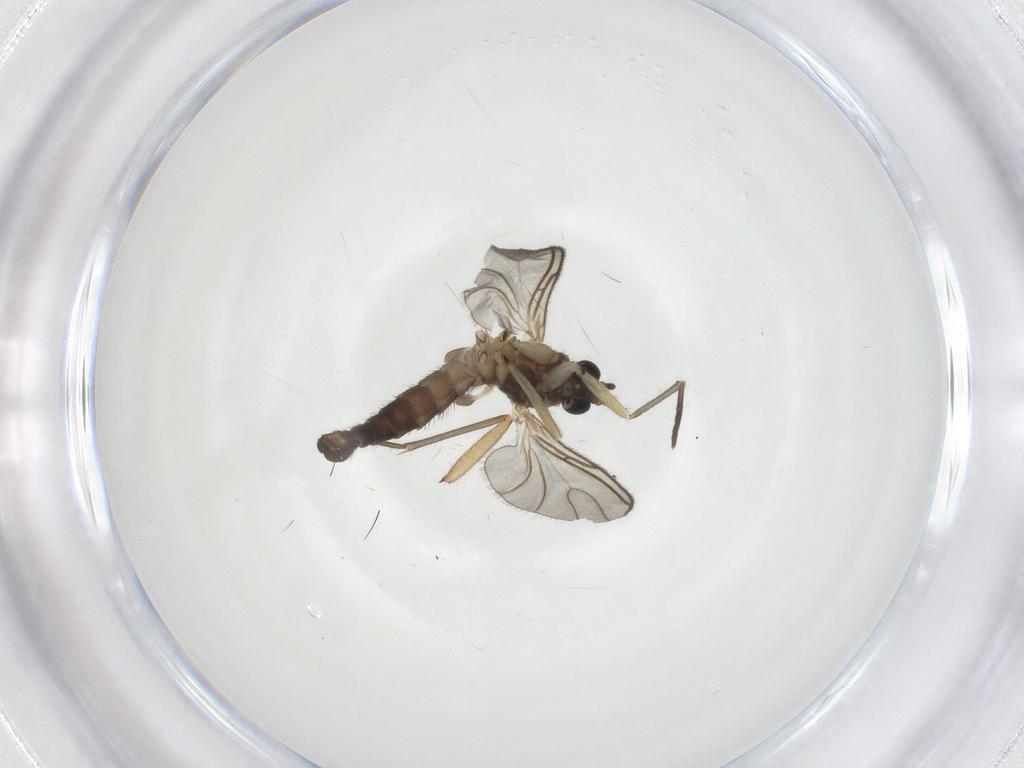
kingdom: Animalia
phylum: Arthropoda
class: Insecta
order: Diptera
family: Sciaridae
